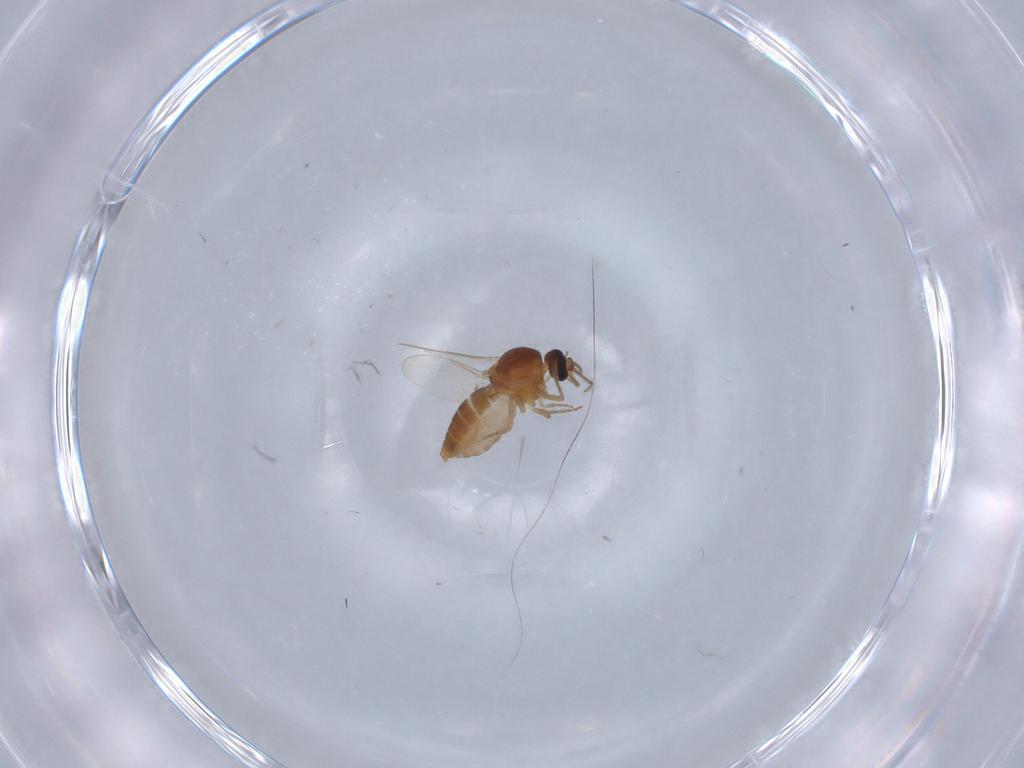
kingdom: Animalia
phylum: Arthropoda
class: Insecta
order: Diptera
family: Ceratopogonidae
